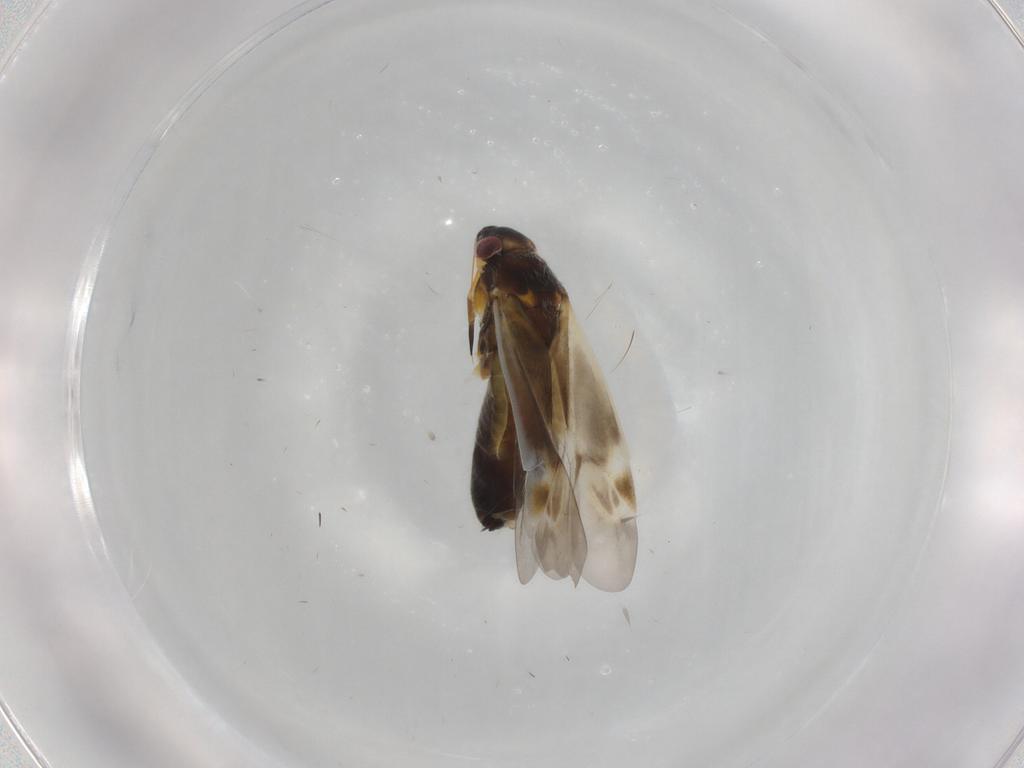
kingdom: Animalia
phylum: Arthropoda
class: Insecta
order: Hemiptera
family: Miridae
